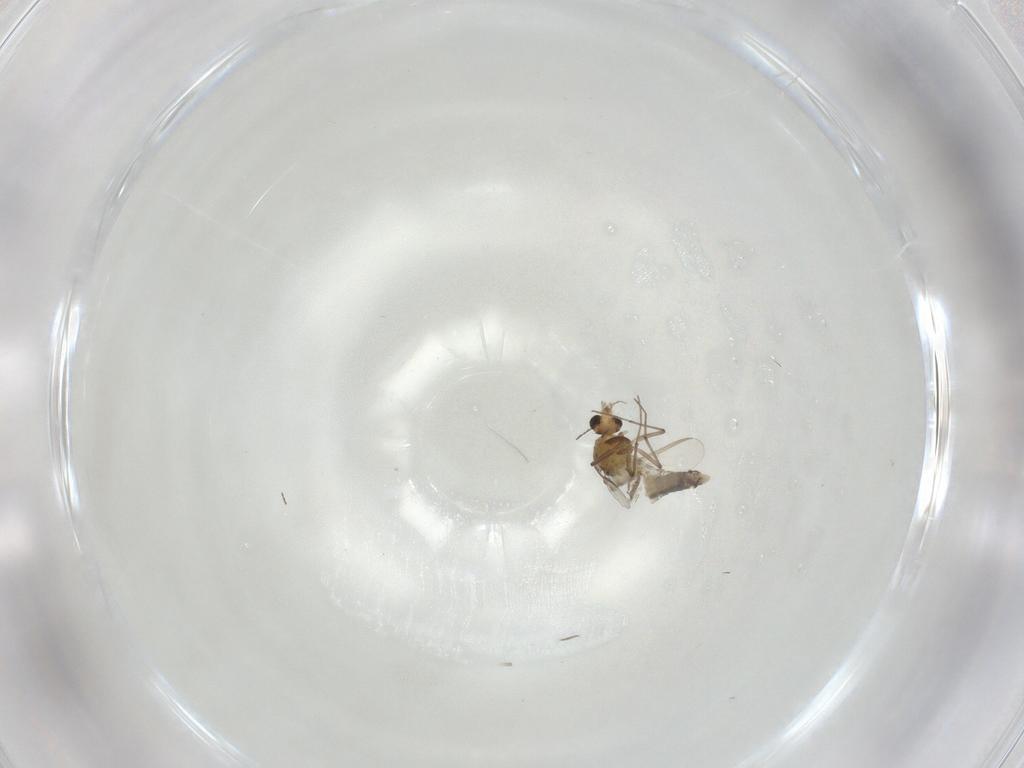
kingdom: Animalia
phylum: Arthropoda
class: Insecta
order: Diptera
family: Chironomidae
